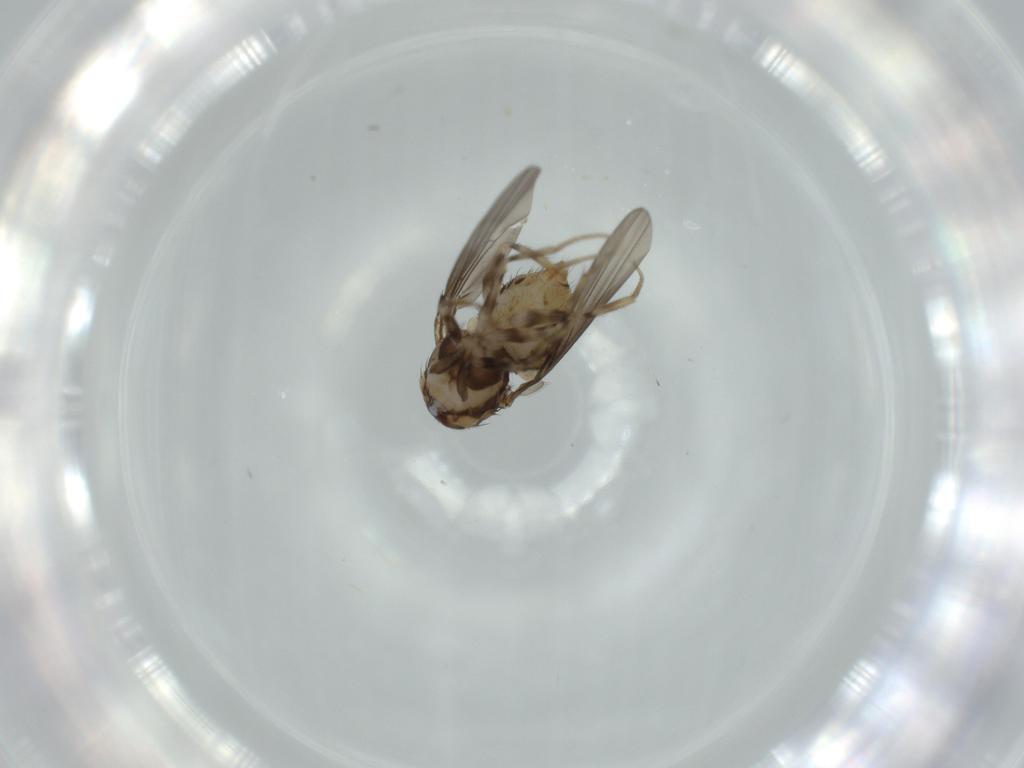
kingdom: Animalia
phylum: Arthropoda
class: Insecta
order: Diptera
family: Drosophilidae
